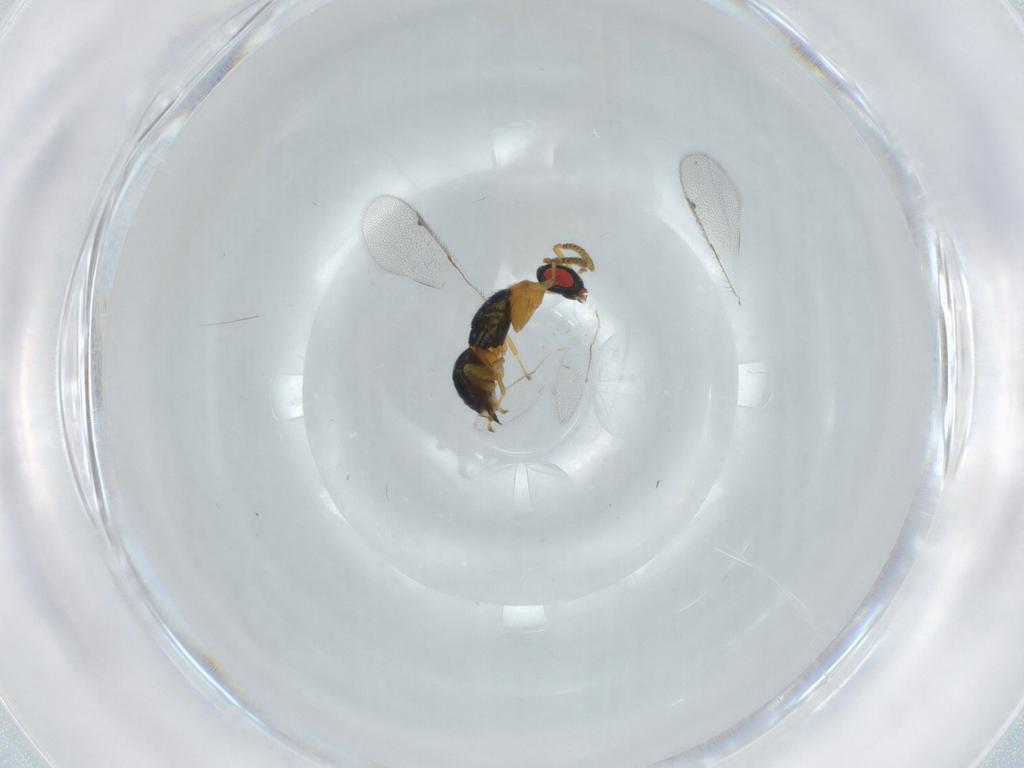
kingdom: Animalia
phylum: Arthropoda
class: Insecta
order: Hymenoptera
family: Torymidae
